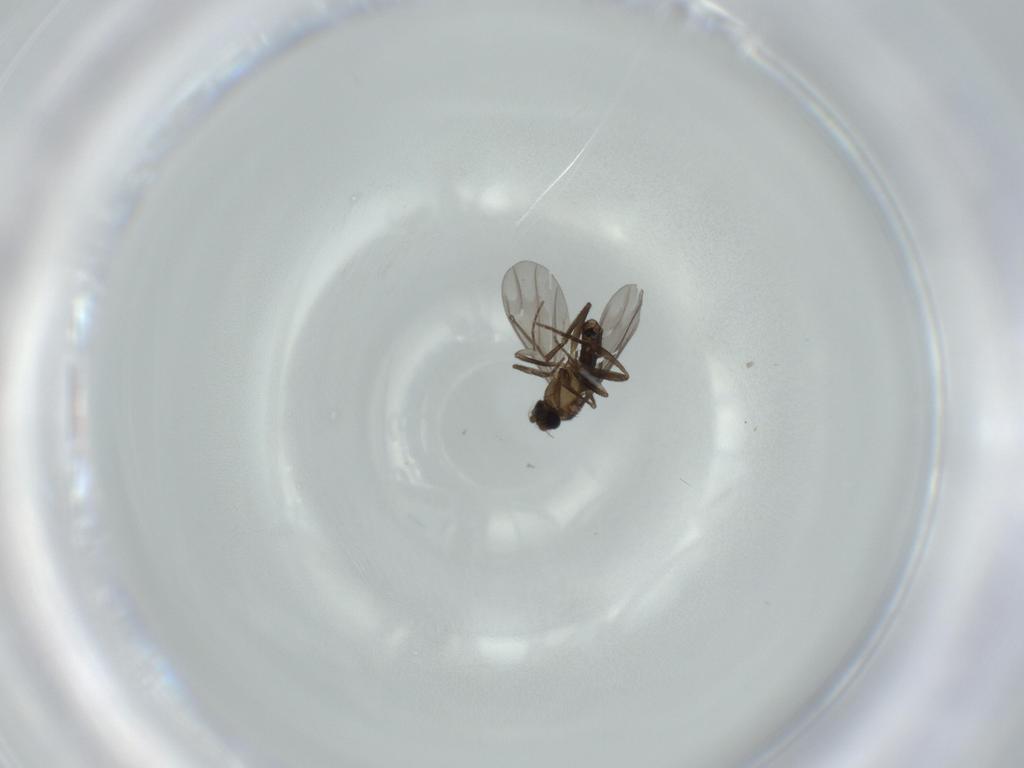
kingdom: Animalia
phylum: Arthropoda
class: Insecta
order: Diptera
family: Phoridae
